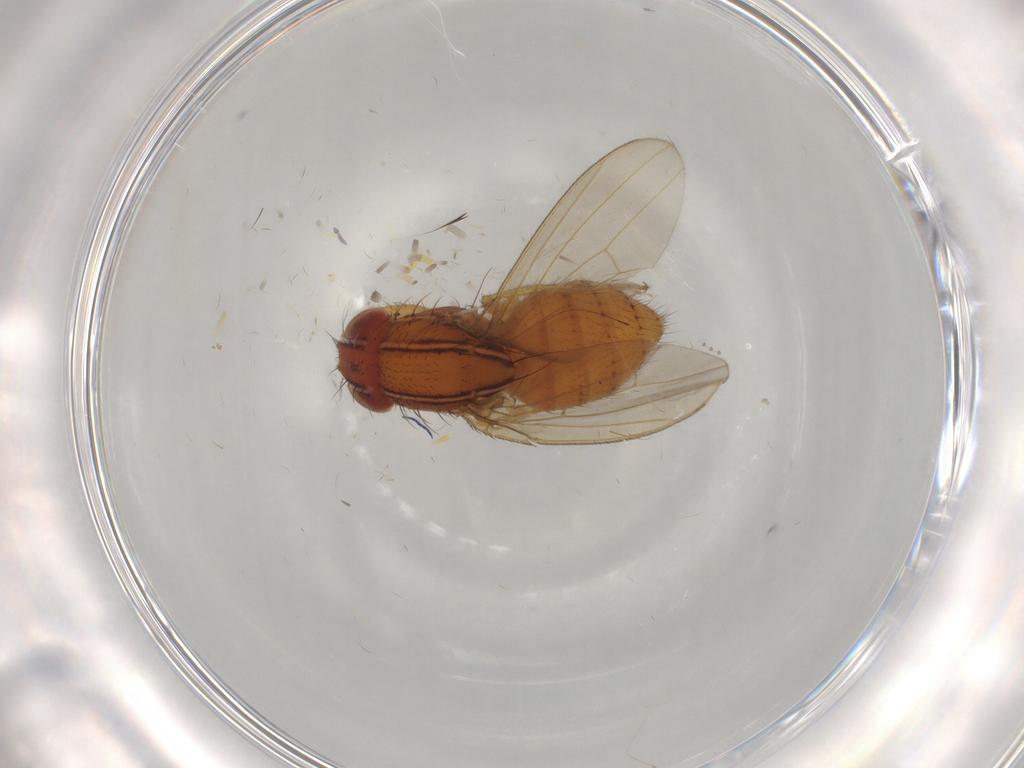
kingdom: Animalia
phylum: Arthropoda
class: Insecta
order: Diptera
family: Drosophilidae
